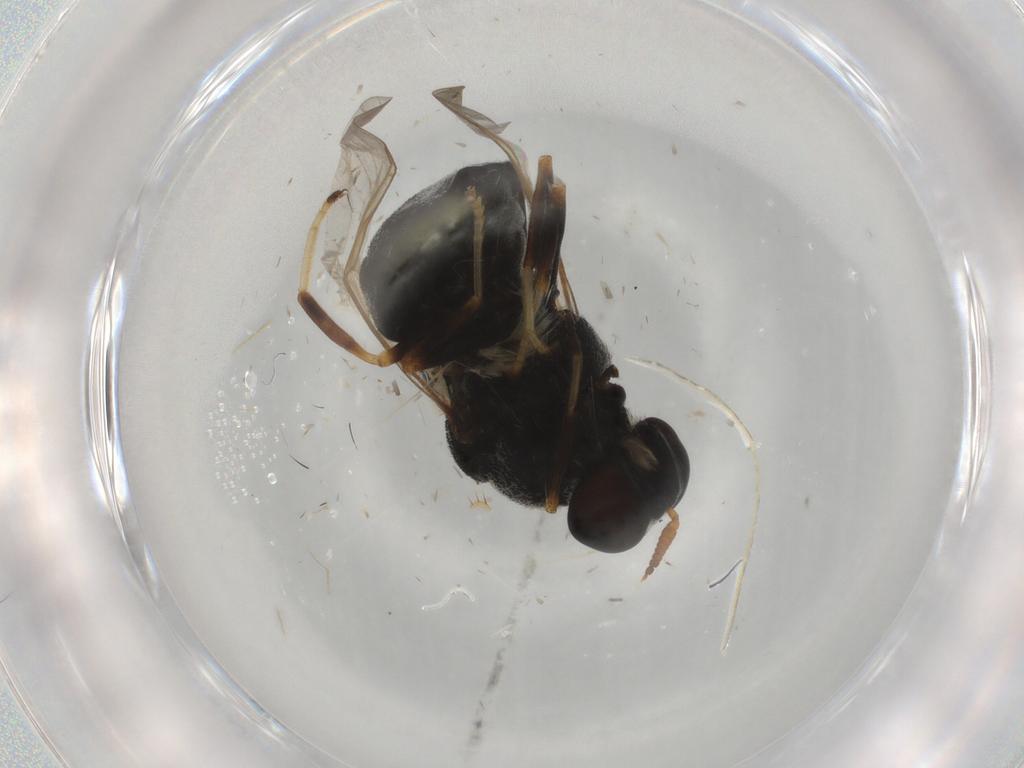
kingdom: Animalia
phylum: Arthropoda
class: Insecta
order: Diptera
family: Stratiomyidae
